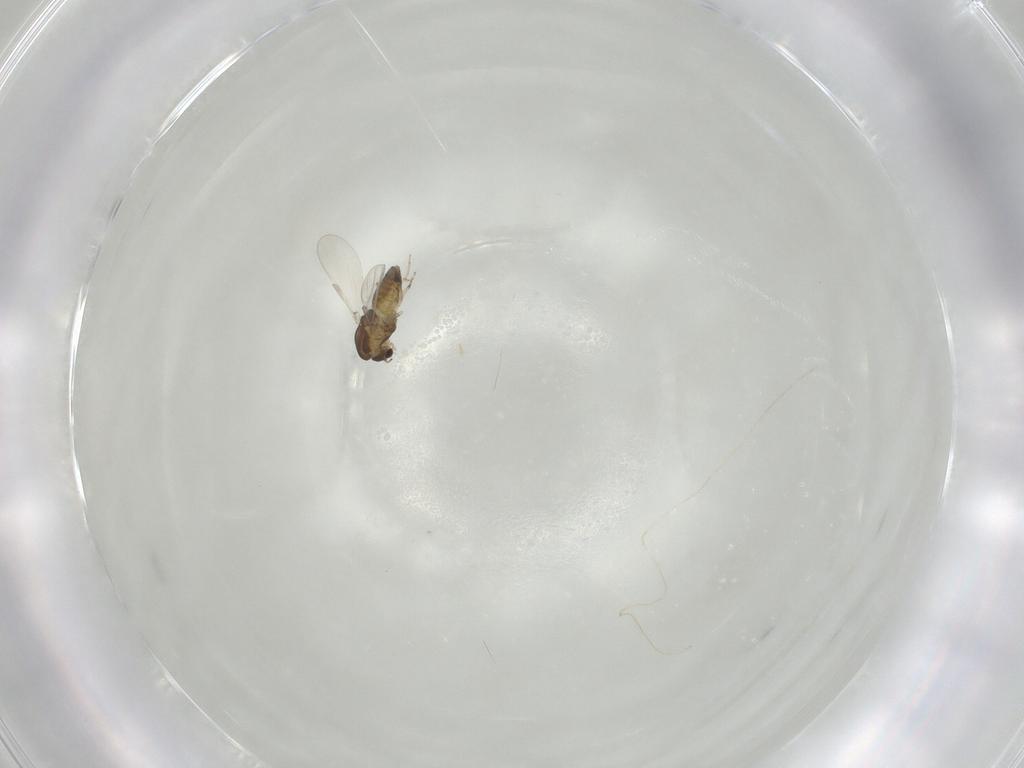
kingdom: Animalia
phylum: Arthropoda
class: Insecta
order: Diptera
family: Chironomidae
